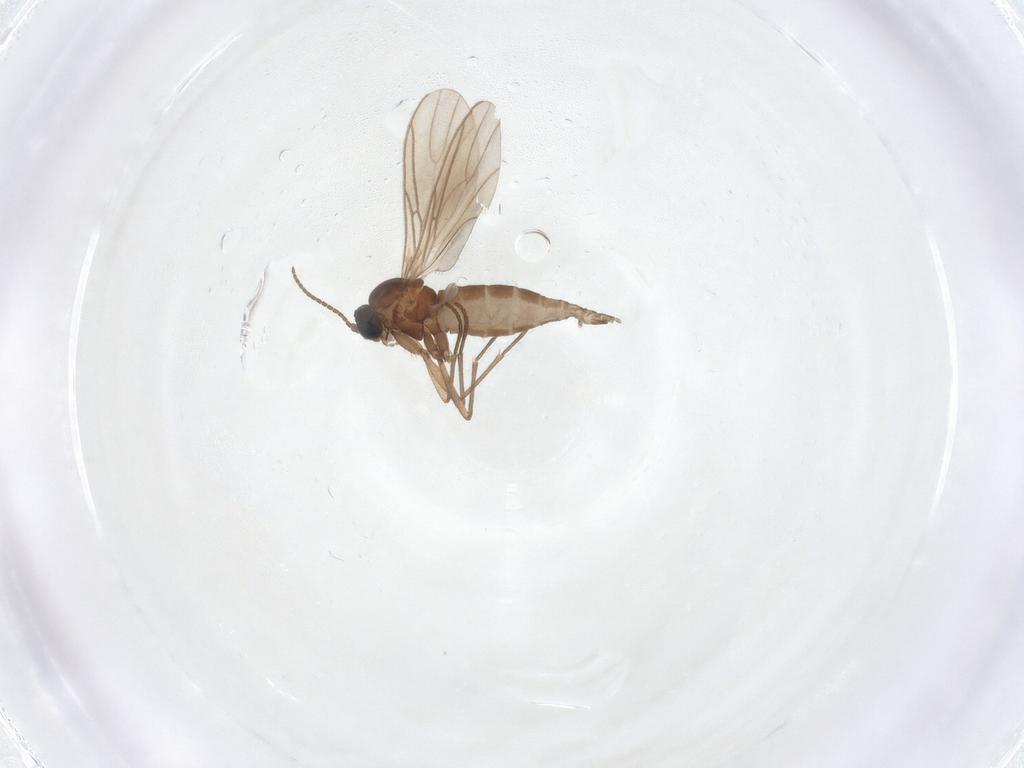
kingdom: Animalia
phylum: Arthropoda
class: Insecta
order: Diptera
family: Sciaridae
